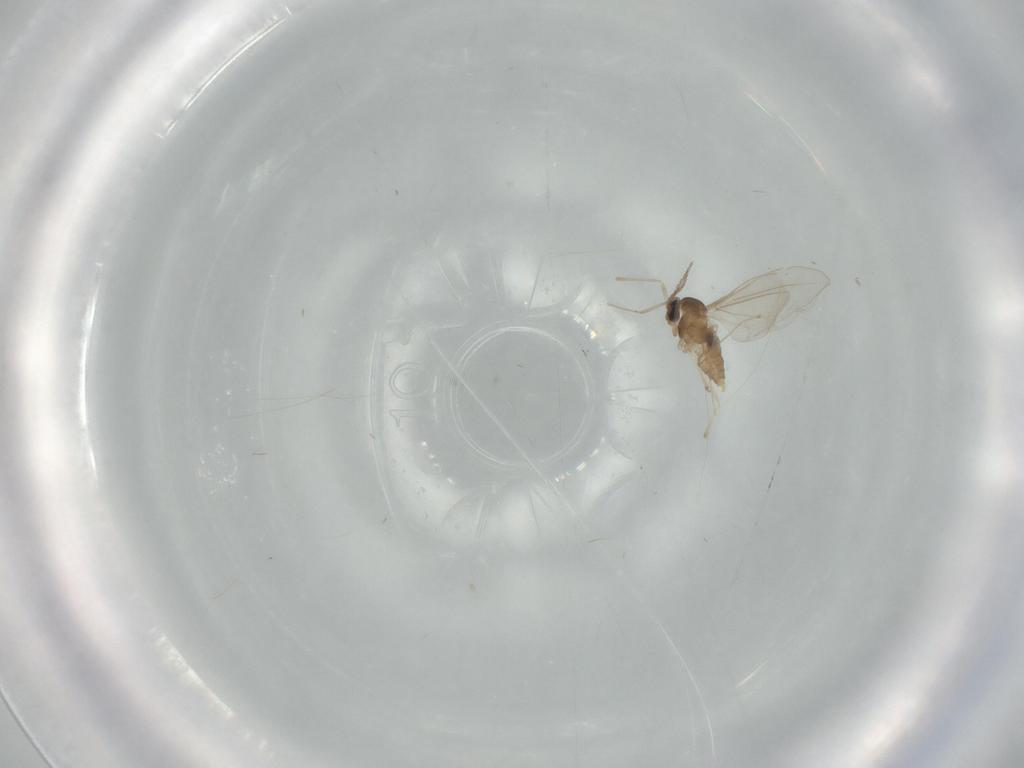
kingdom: Animalia
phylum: Arthropoda
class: Insecta
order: Diptera
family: Cecidomyiidae
